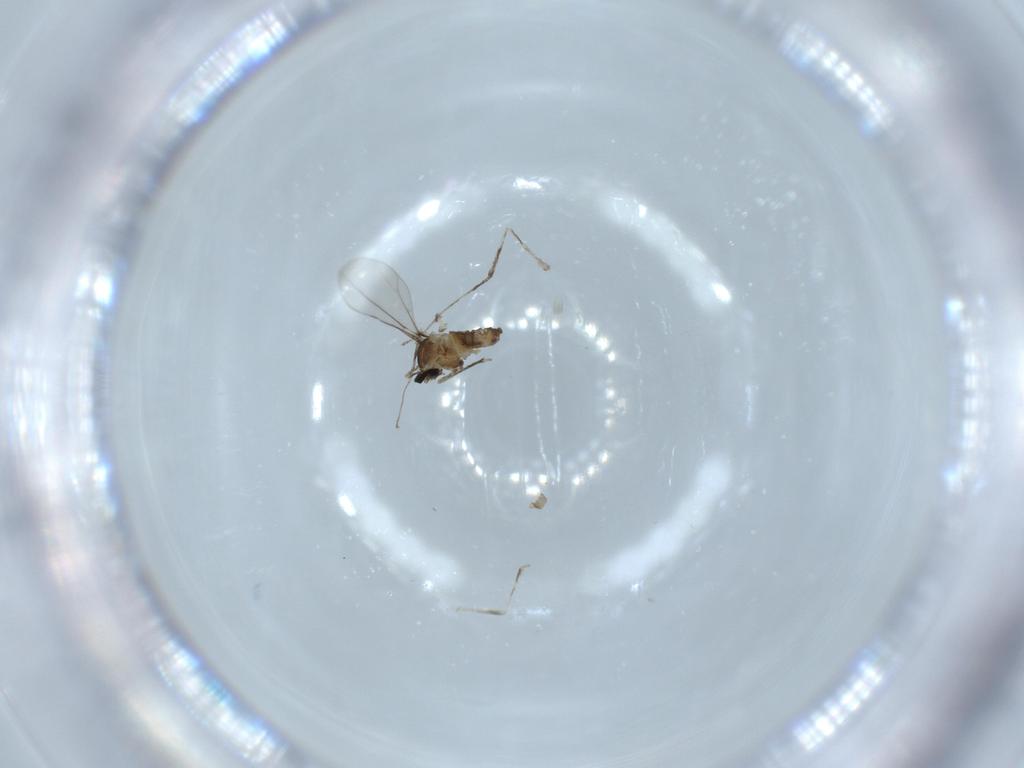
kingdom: Animalia
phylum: Arthropoda
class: Insecta
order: Diptera
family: Cecidomyiidae
